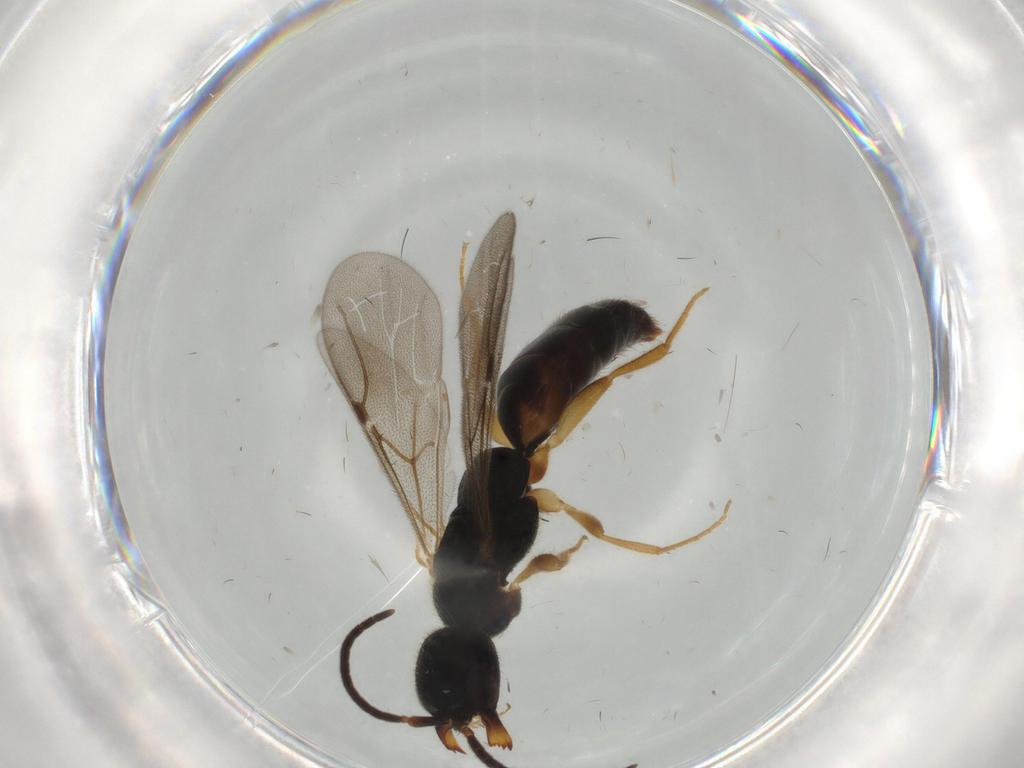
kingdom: Animalia
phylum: Arthropoda
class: Insecta
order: Hymenoptera
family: Bethylidae
